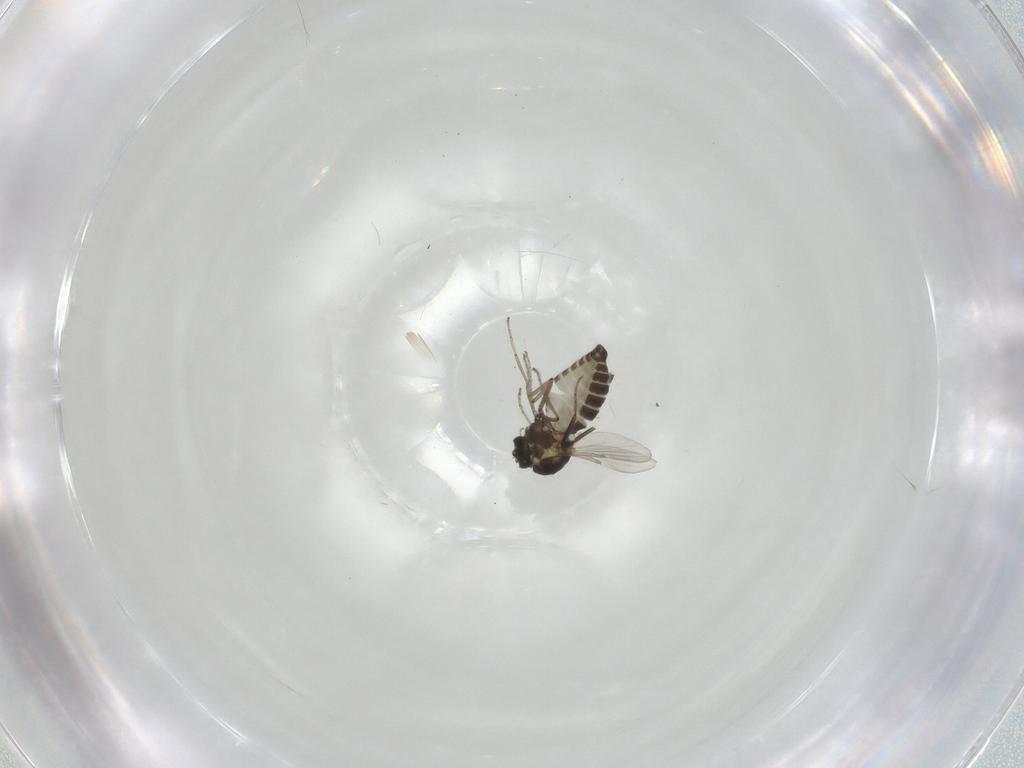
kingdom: Animalia
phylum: Arthropoda
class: Insecta
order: Diptera
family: Ceratopogonidae
